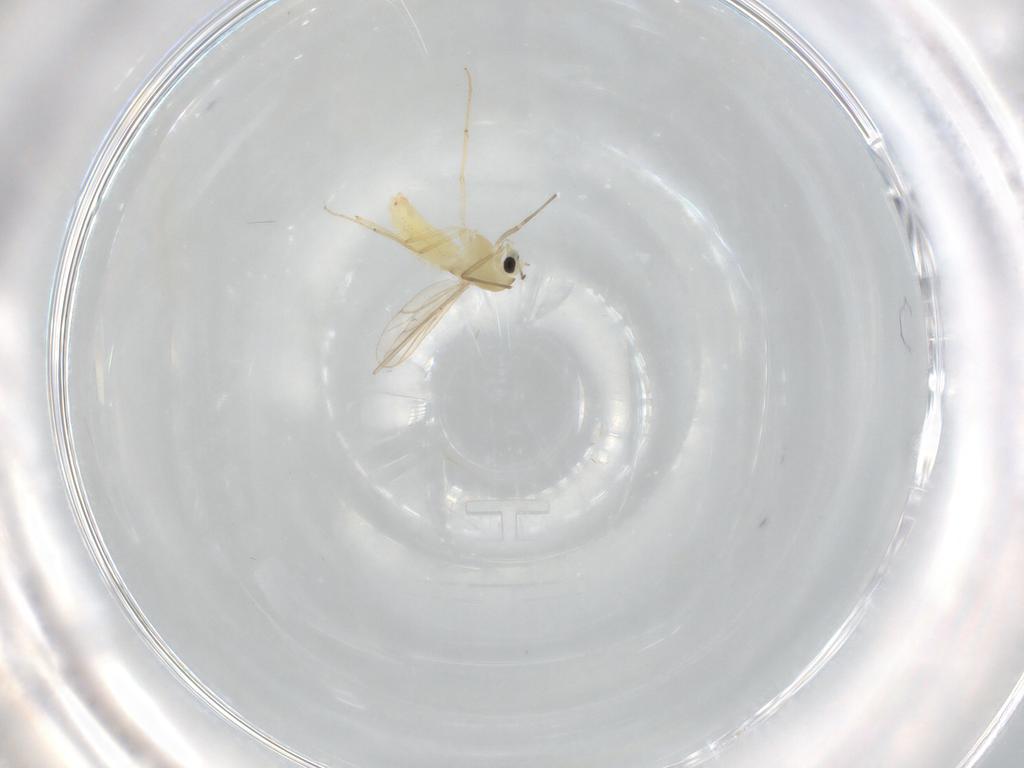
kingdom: Animalia
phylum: Arthropoda
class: Insecta
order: Diptera
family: Chironomidae
